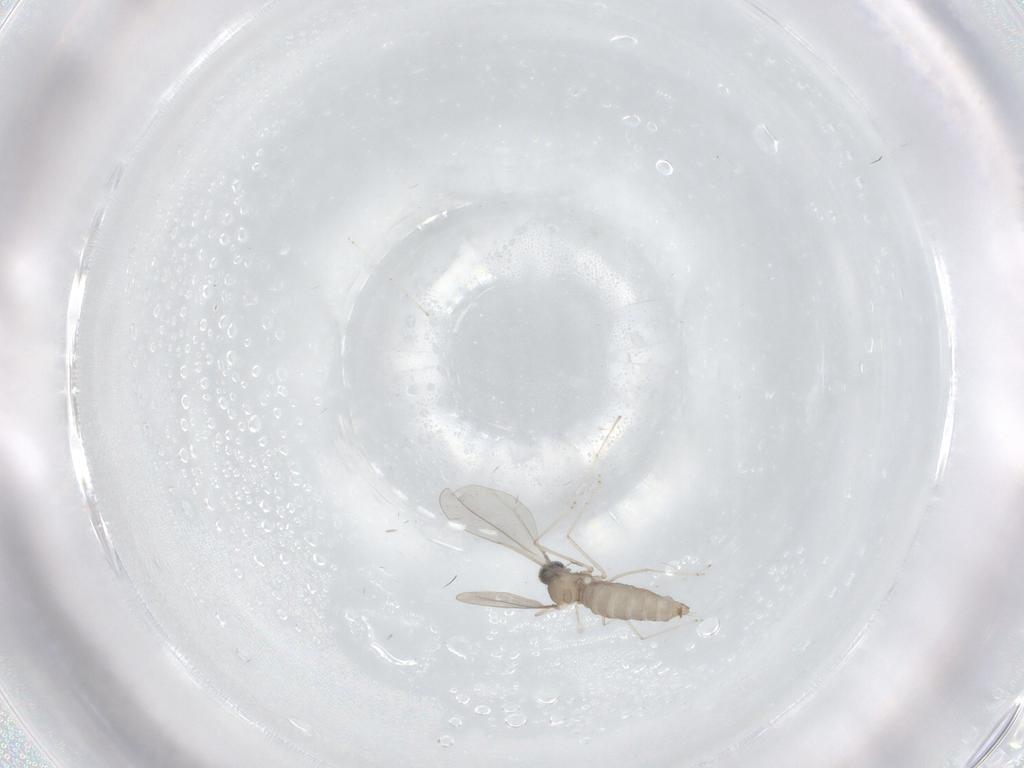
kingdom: Animalia
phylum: Arthropoda
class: Insecta
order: Diptera
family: Cecidomyiidae
